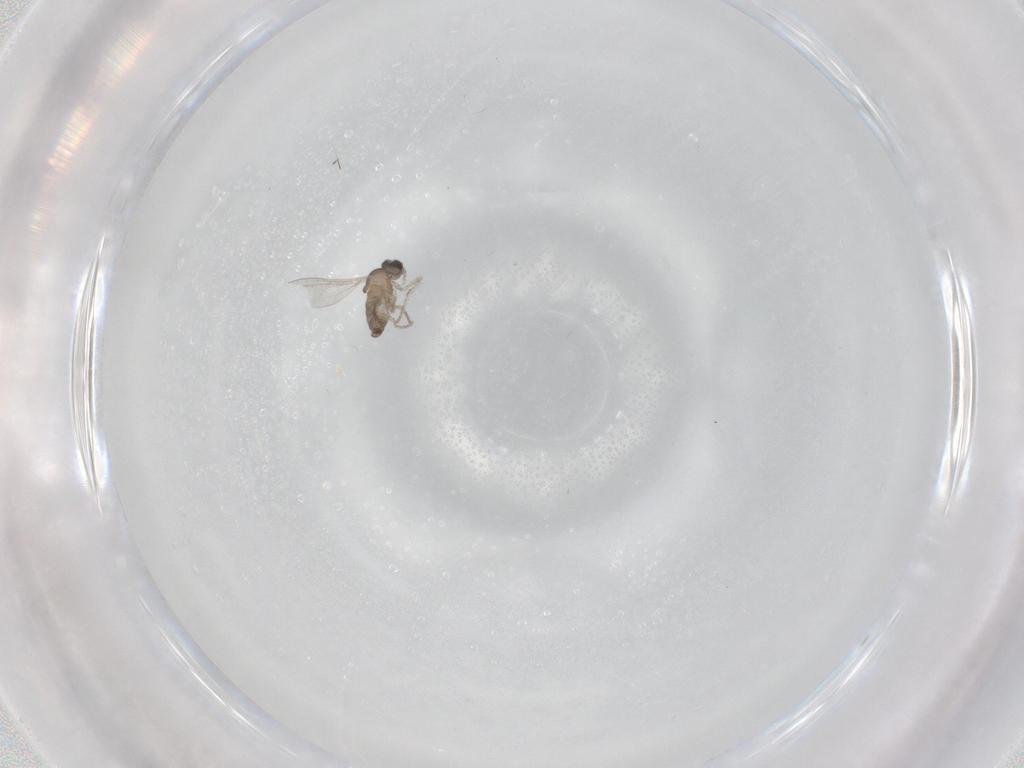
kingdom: Animalia
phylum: Arthropoda
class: Insecta
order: Diptera
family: Cecidomyiidae
